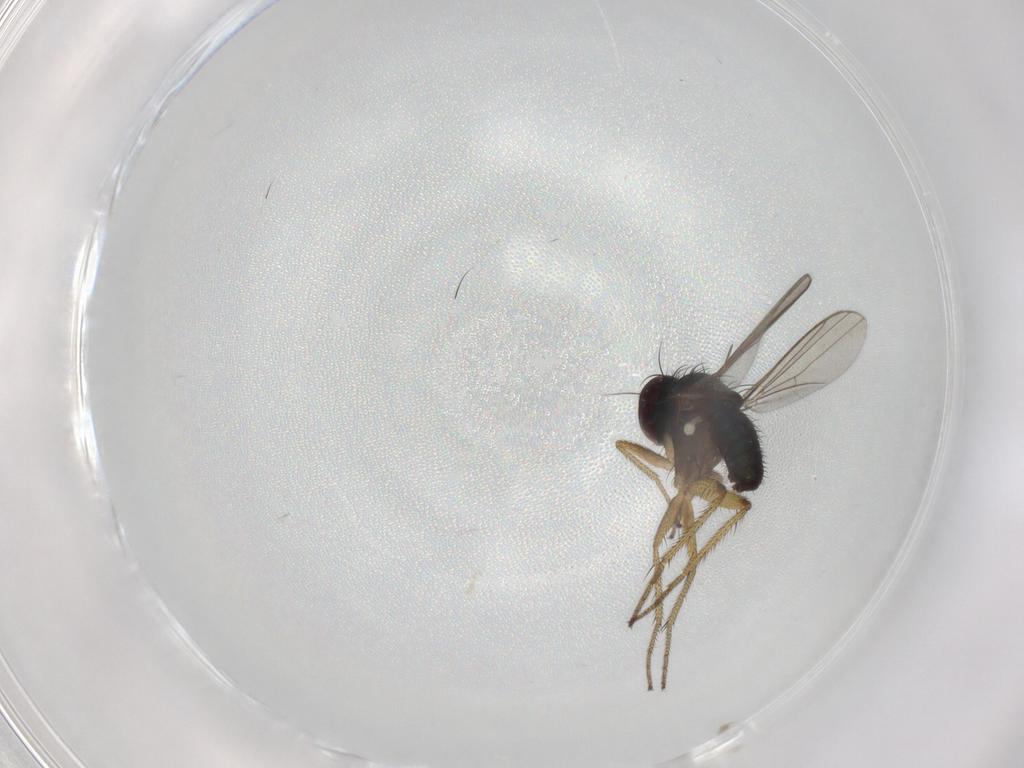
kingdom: Animalia
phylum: Arthropoda
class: Insecta
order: Diptera
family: Dolichopodidae
